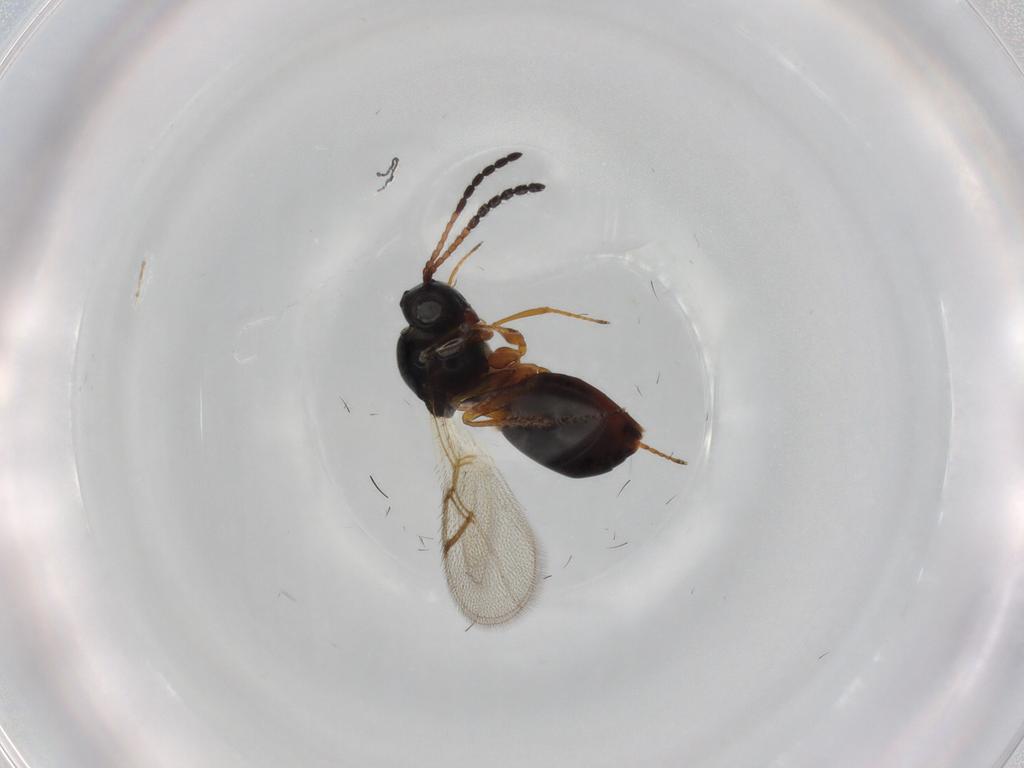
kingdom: Animalia
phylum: Arthropoda
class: Insecta
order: Hymenoptera
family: Figitidae
